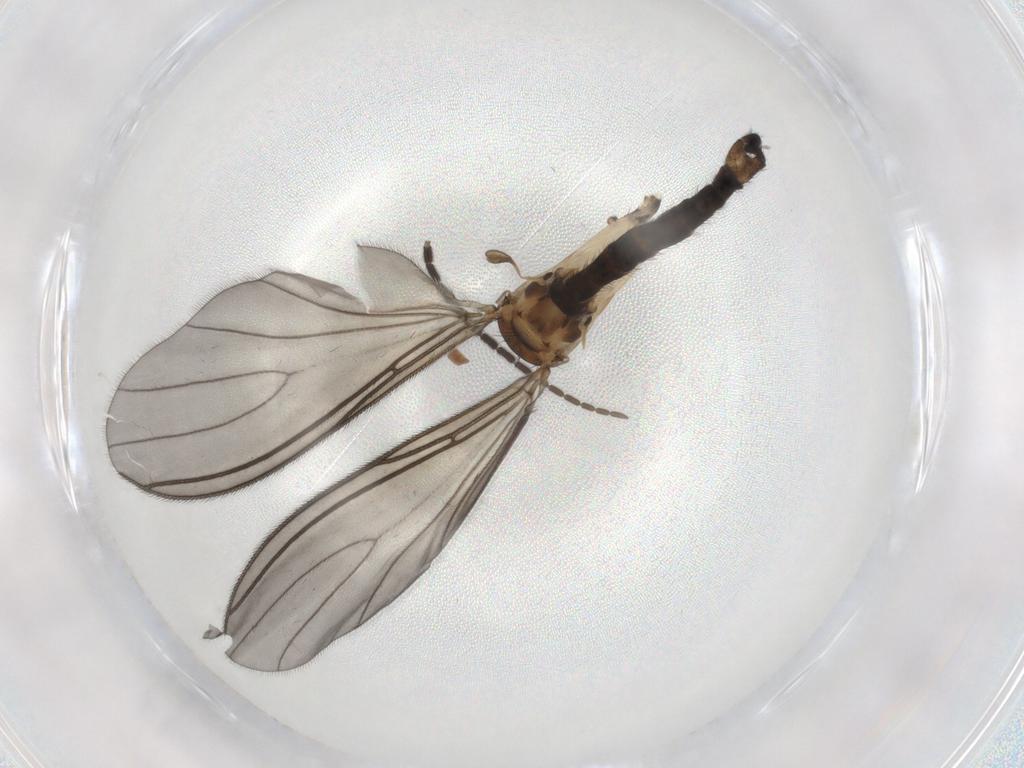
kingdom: Animalia
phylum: Arthropoda
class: Insecta
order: Diptera
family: Sciaridae
